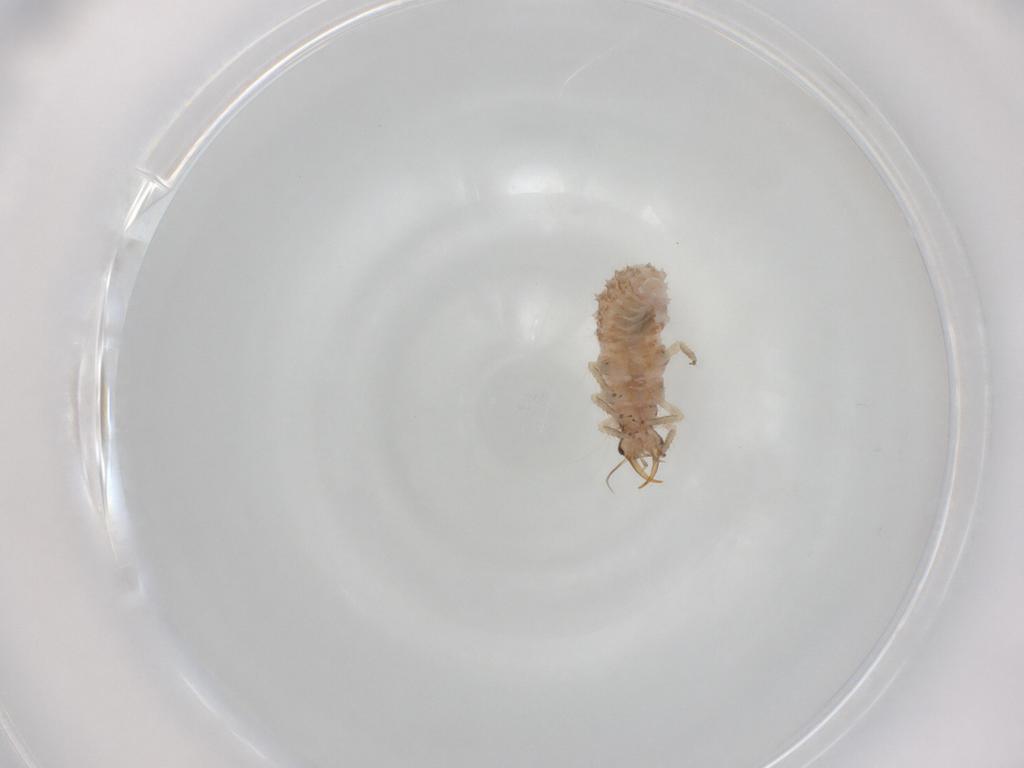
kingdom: Animalia
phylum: Arthropoda
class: Insecta
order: Neuroptera
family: Chrysopidae
